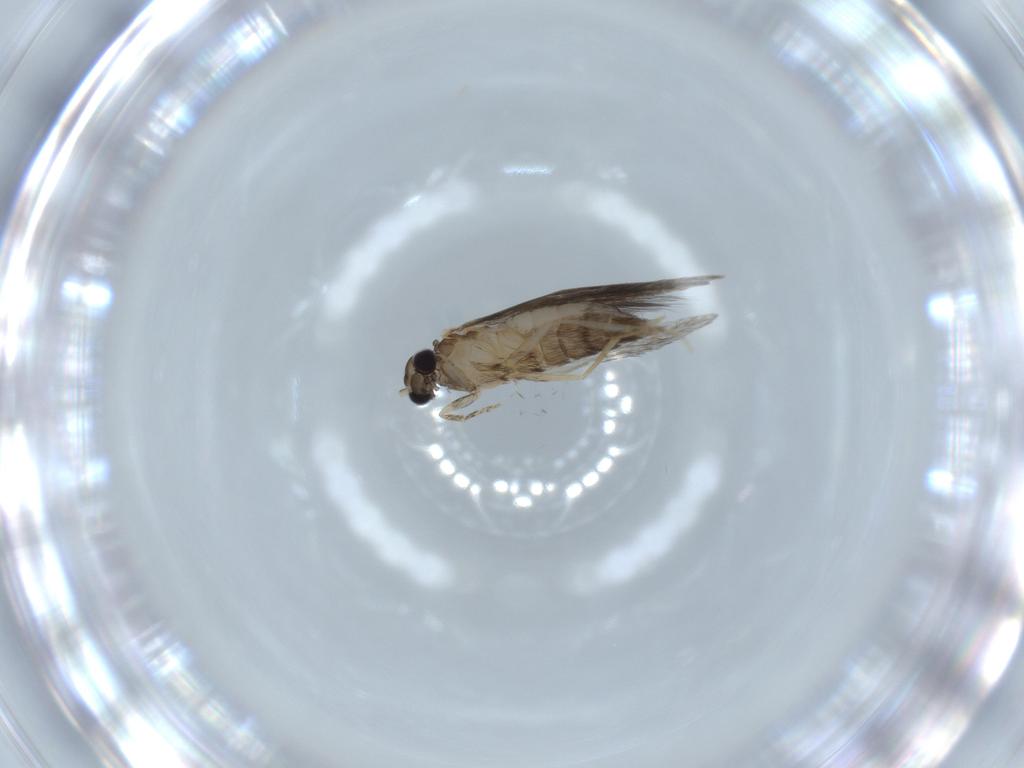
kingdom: Animalia
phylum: Arthropoda
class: Insecta
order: Trichoptera
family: Hydroptilidae
